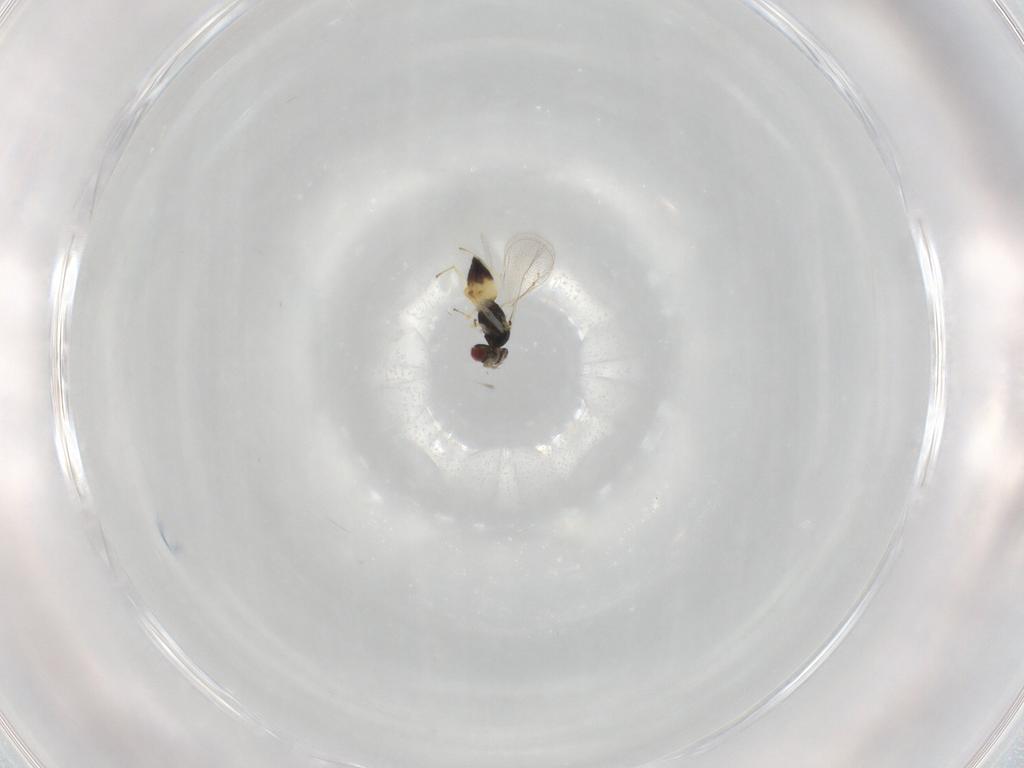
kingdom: Animalia
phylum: Arthropoda
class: Insecta
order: Hymenoptera
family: Eulophidae
